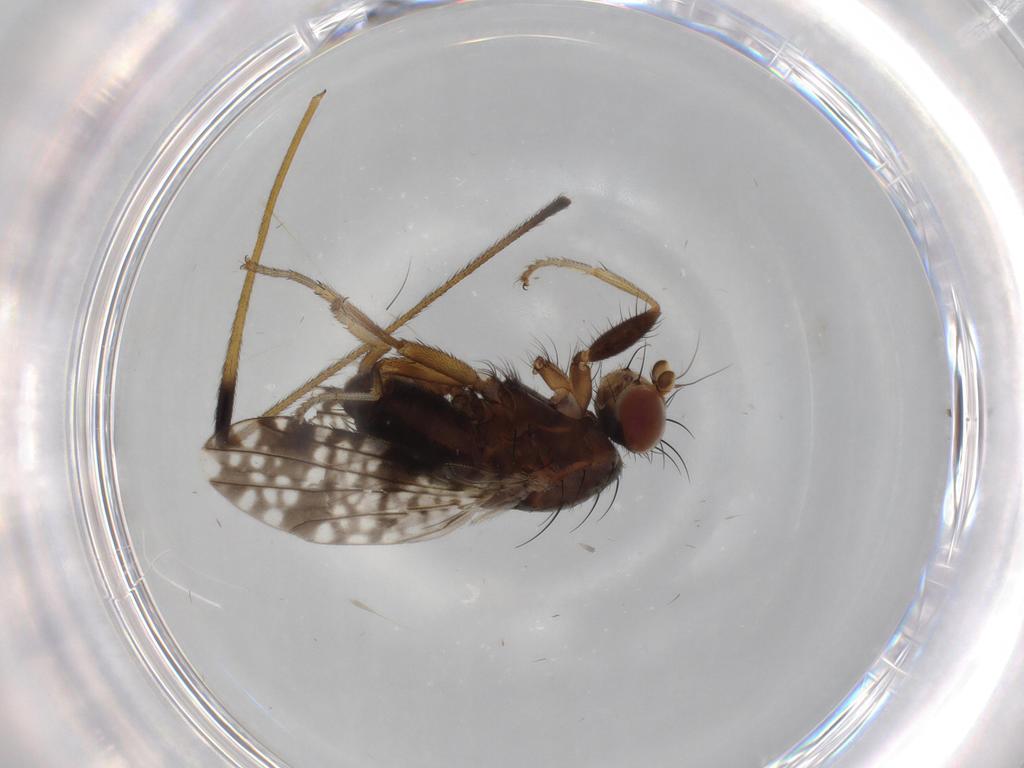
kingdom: Animalia
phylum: Arthropoda
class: Insecta
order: Diptera
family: Tephritidae
